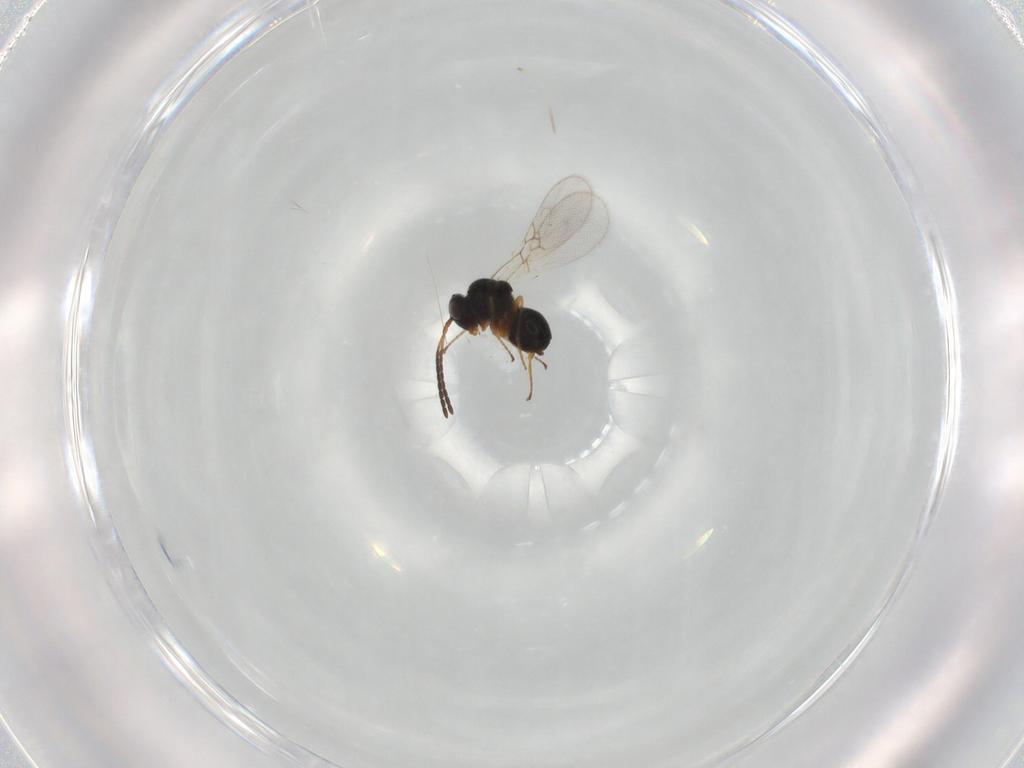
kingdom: Animalia
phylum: Arthropoda
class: Insecta
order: Hymenoptera
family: Figitidae
